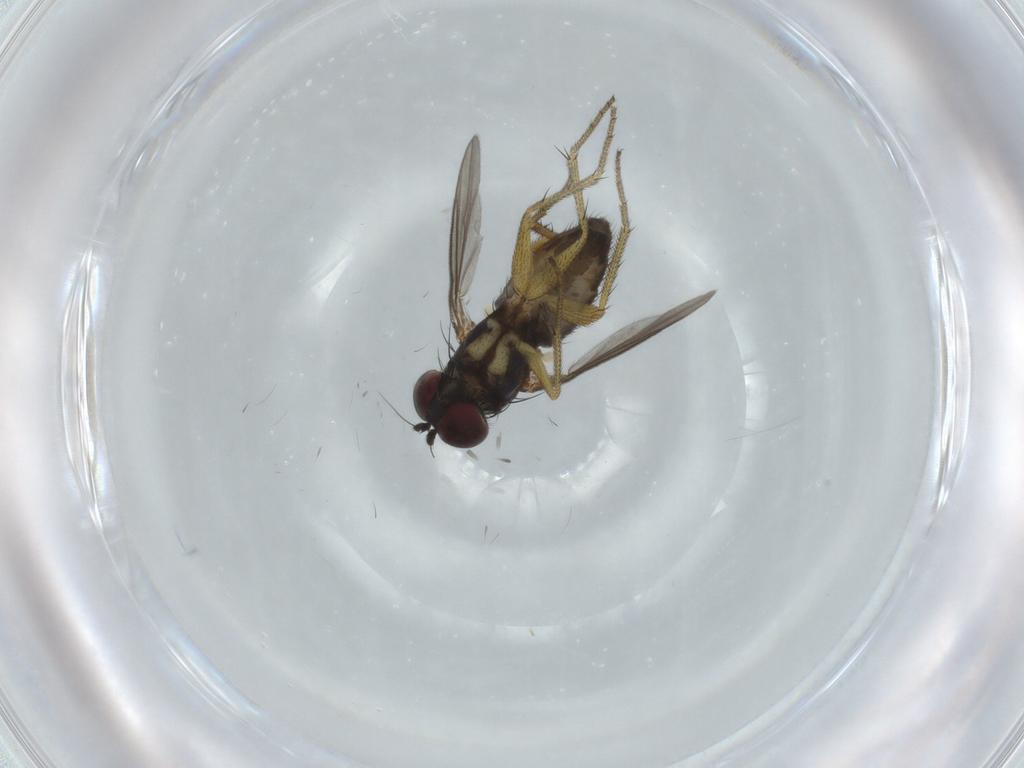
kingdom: Animalia
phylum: Arthropoda
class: Insecta
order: Diptera
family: Dolichopodidae
